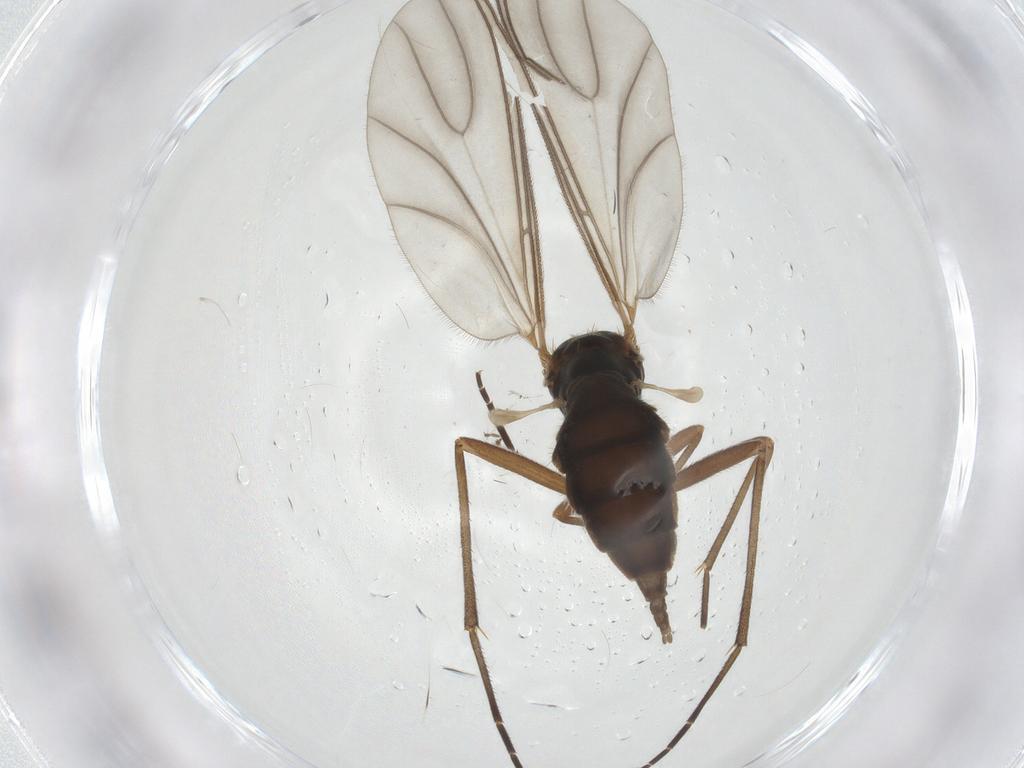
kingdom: Animalia
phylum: Arthropoda
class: Insecta
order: Diptera
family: Sciaridae
